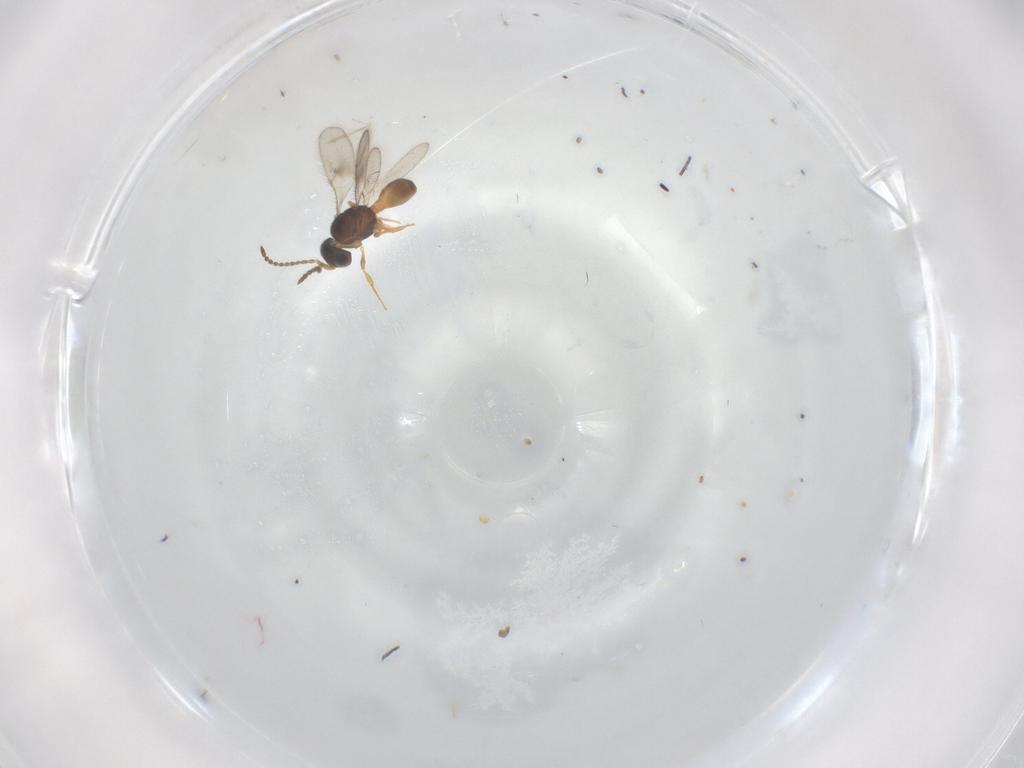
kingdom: Animalia
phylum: Arthropoda
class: Insecta
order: Hymenoptera
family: Scelionidae
